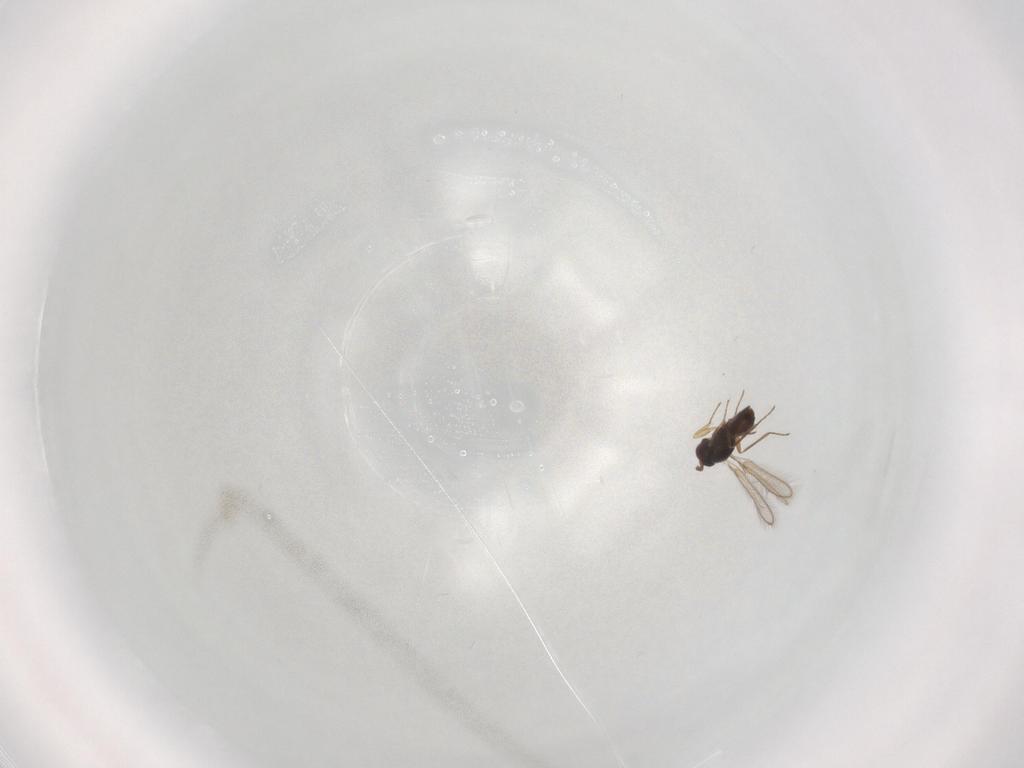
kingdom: Animalia
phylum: Arthropoda
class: Insecta
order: Hymenoptera
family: Mymaridae
